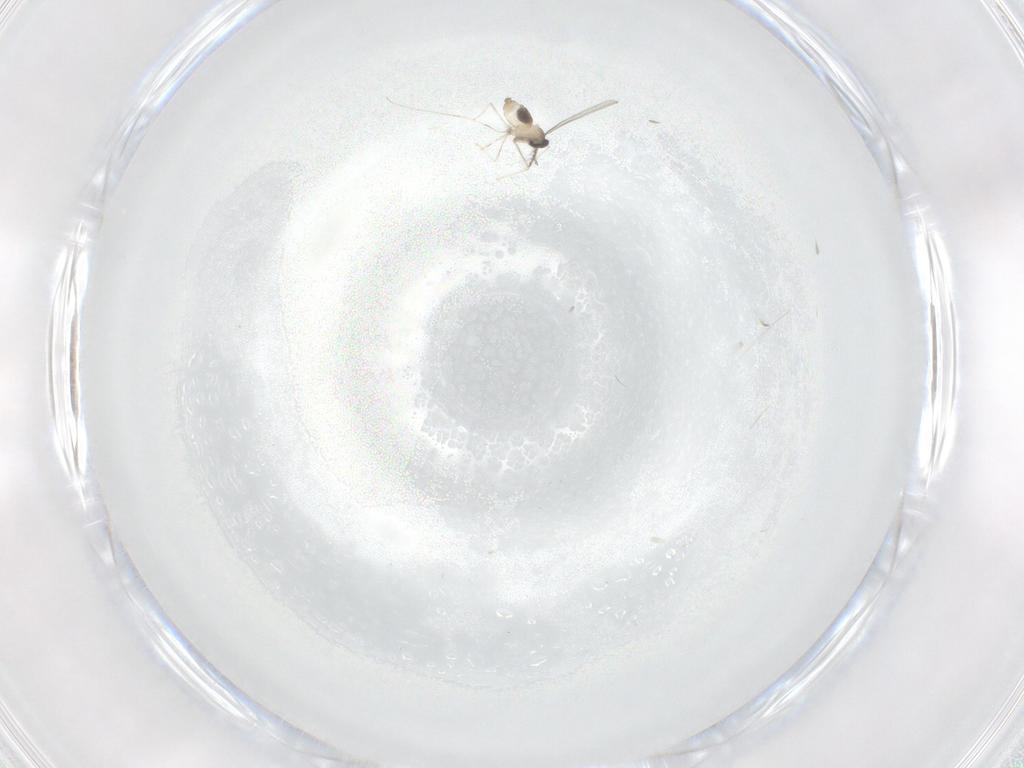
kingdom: Animalia
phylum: Arthropoda
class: Insecta
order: Diptera
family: Cecidomyiidae
